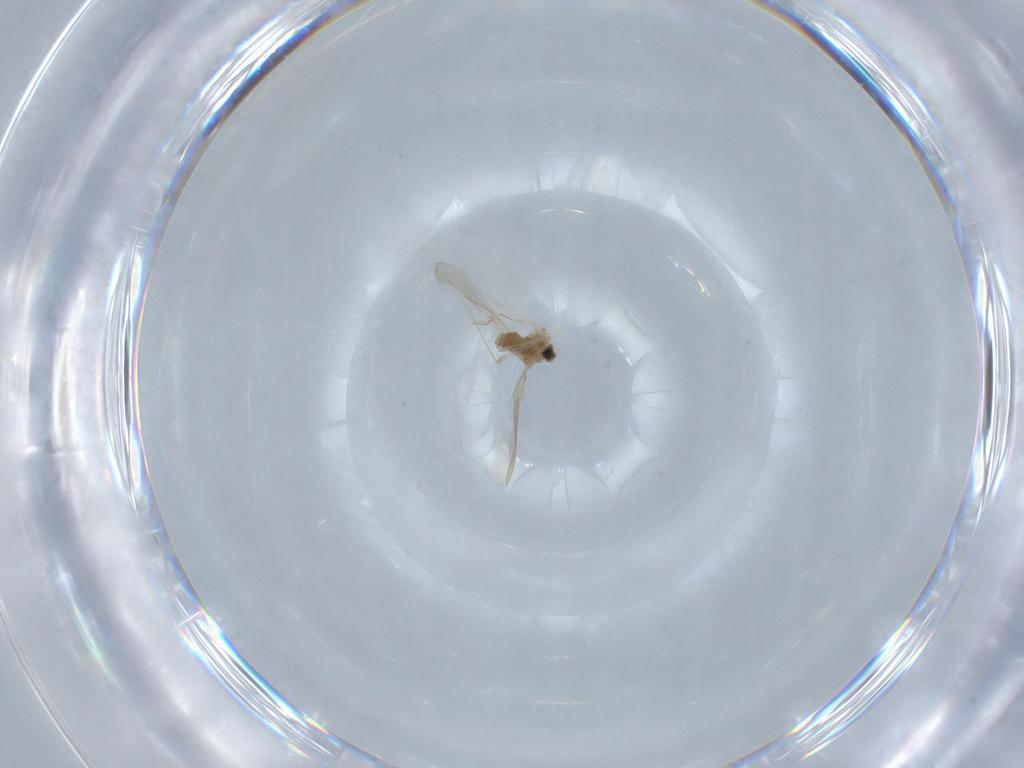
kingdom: Animalia
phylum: Arthropoda
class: Insecta
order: Diptera
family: Cecidomyiidae
